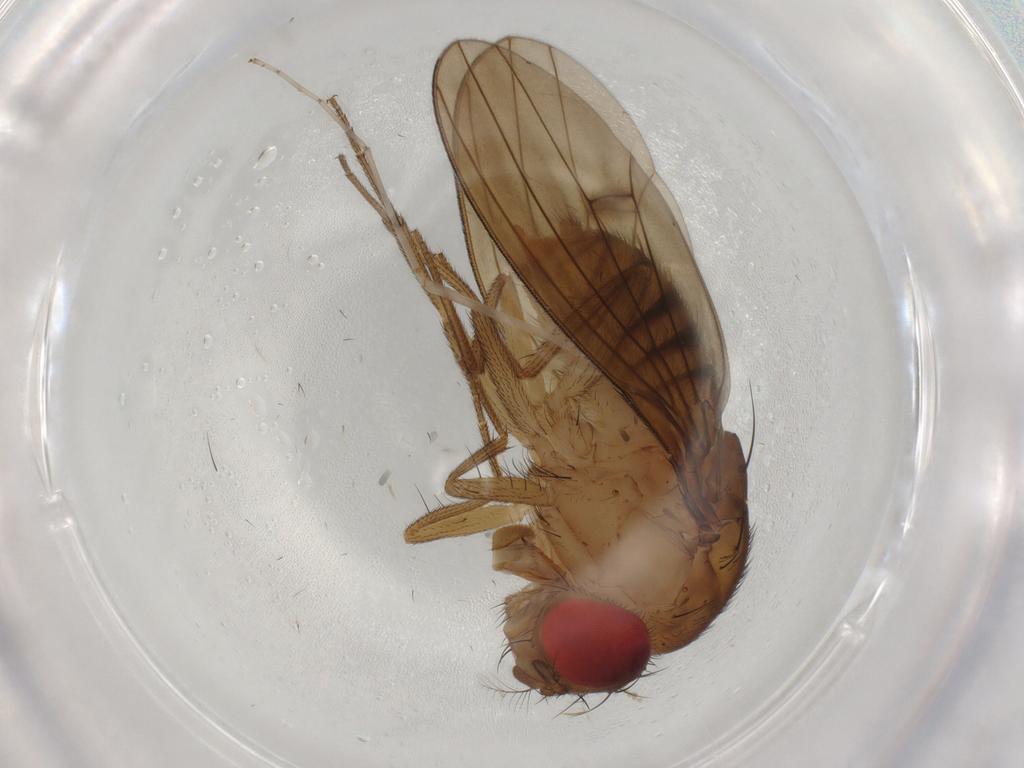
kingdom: Animalia
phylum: Arthropoda
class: Insecta
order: Diptera
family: Drosophilidae
